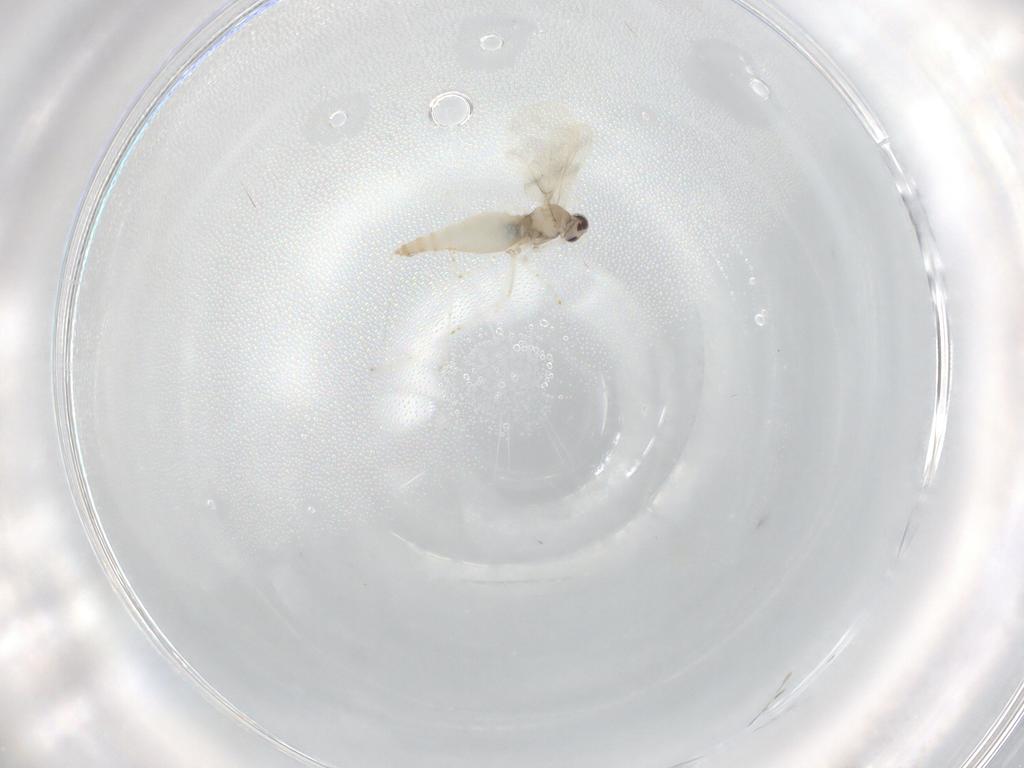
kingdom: Animalia
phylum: Arthropoda
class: Insecta
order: Diptera
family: Cecidomyiidae
